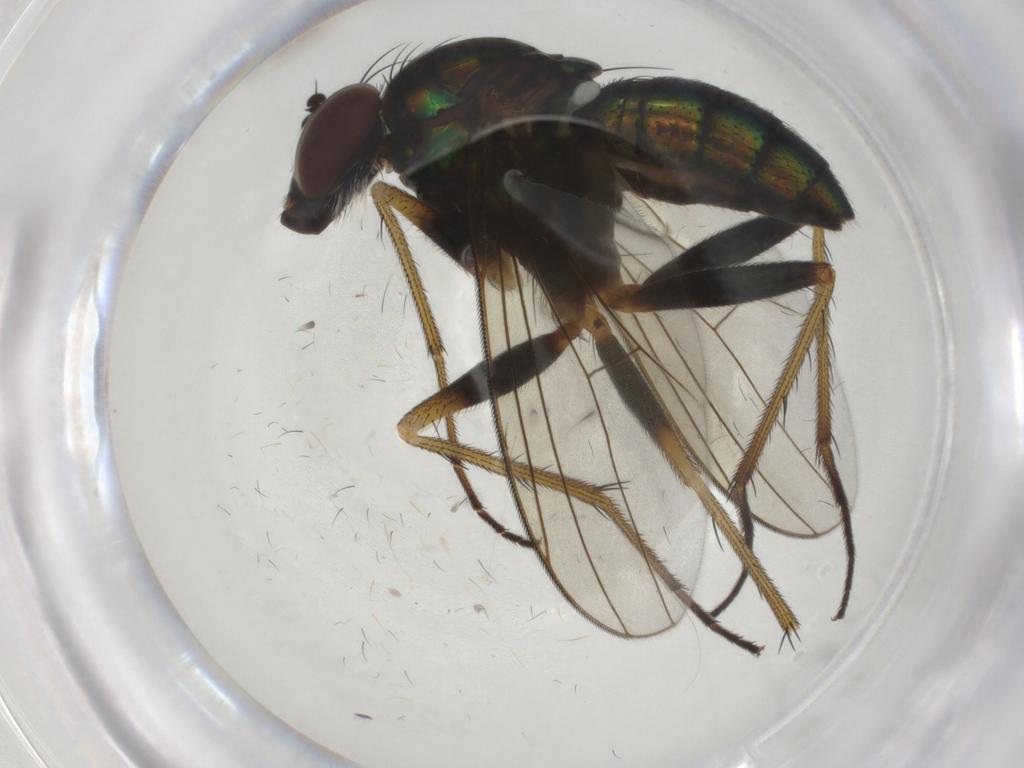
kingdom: Animalia
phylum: Arthropoda
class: Insecta
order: Diptera
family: Dolichopodidae
